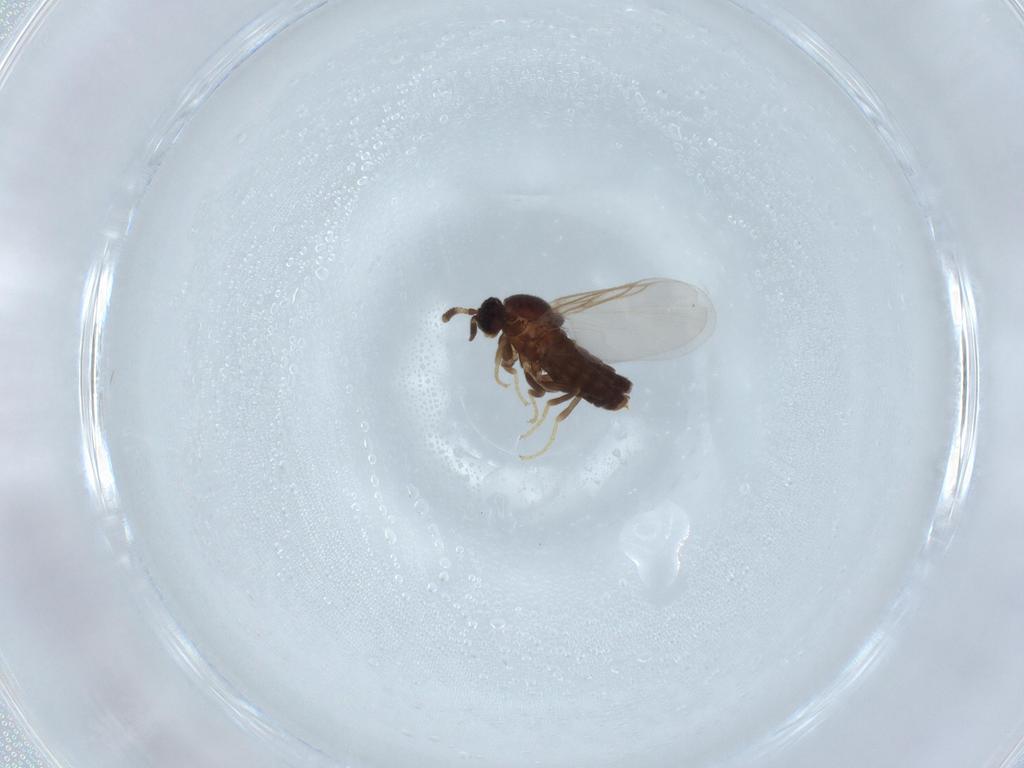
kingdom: Animalia
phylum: Arthropoda
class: Insecta
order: Diptera
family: Scatopsidae
